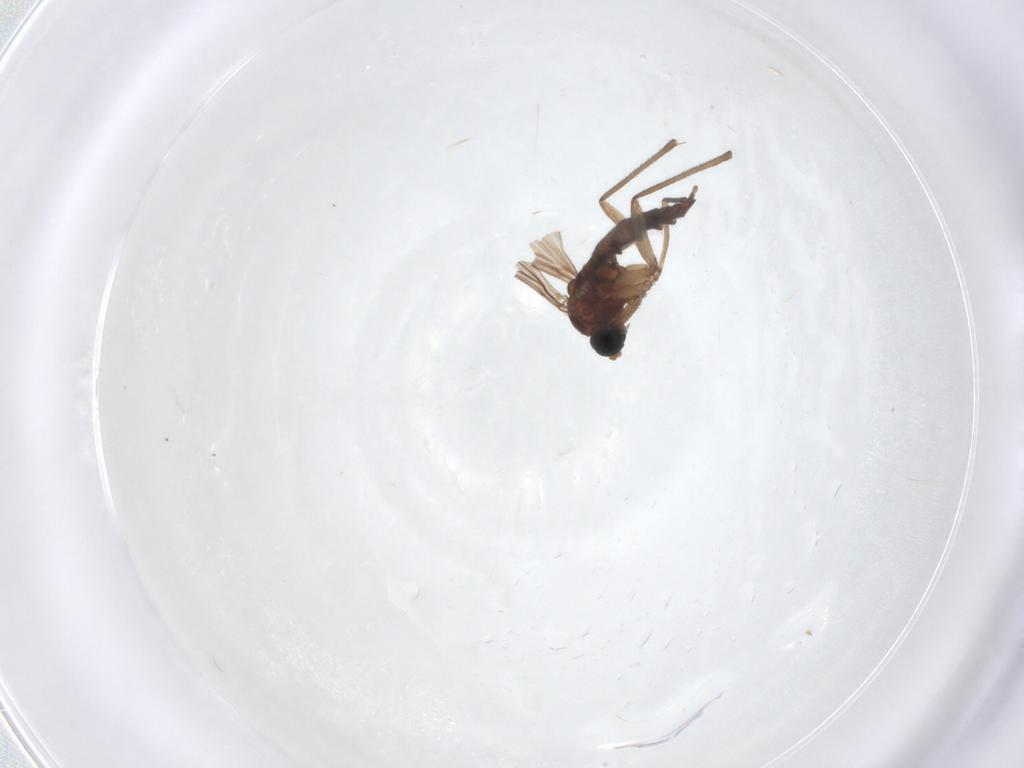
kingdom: Animalia
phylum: Arthropoda
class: Insecta
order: Diptera
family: Sciaridae
